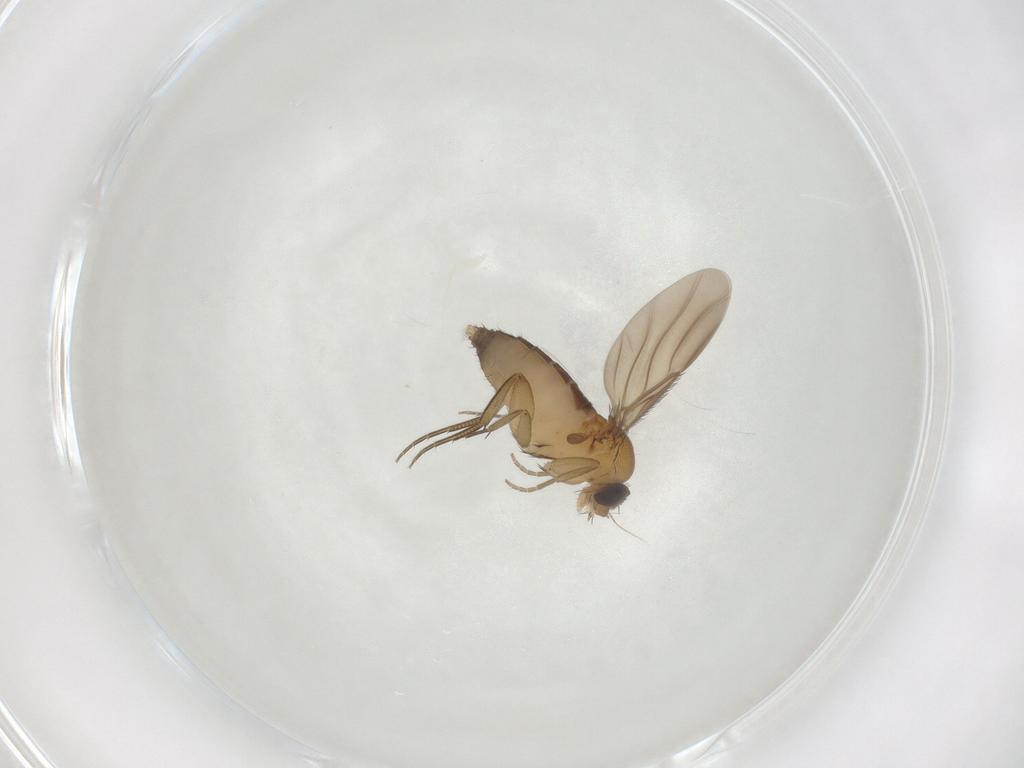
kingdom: Animalia
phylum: Arthropoda
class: Insecta
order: Diptera
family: Phoridae
